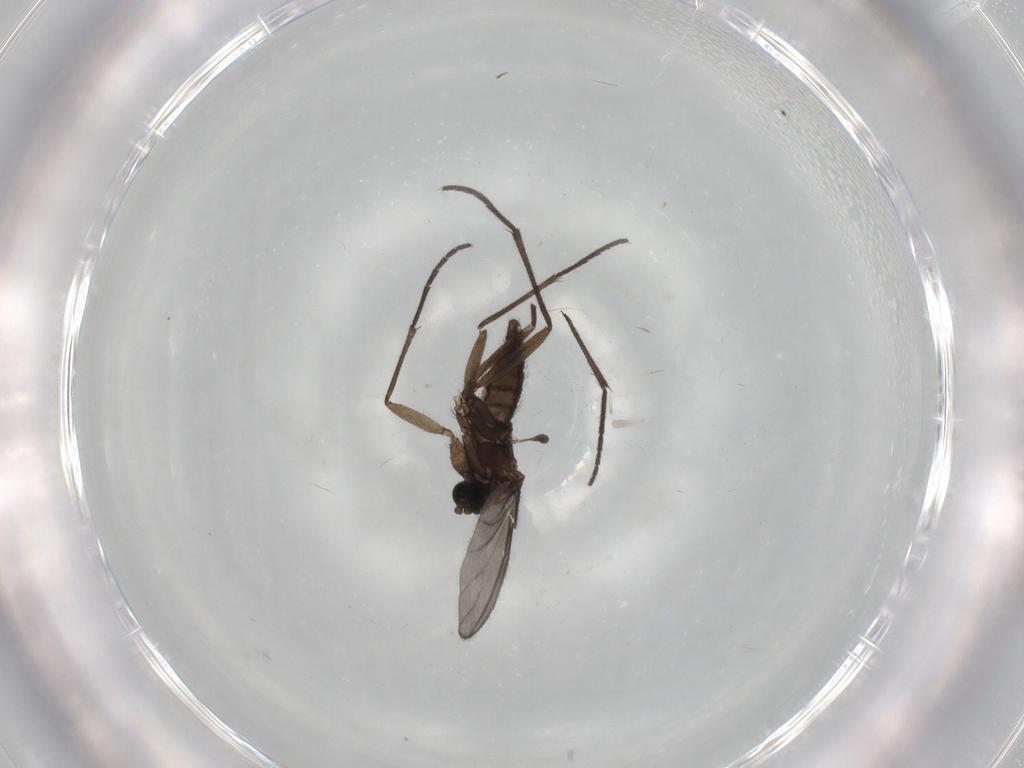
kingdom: Animalia
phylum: Arthropoda
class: Insecta
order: Diptera
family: Sciaridae
